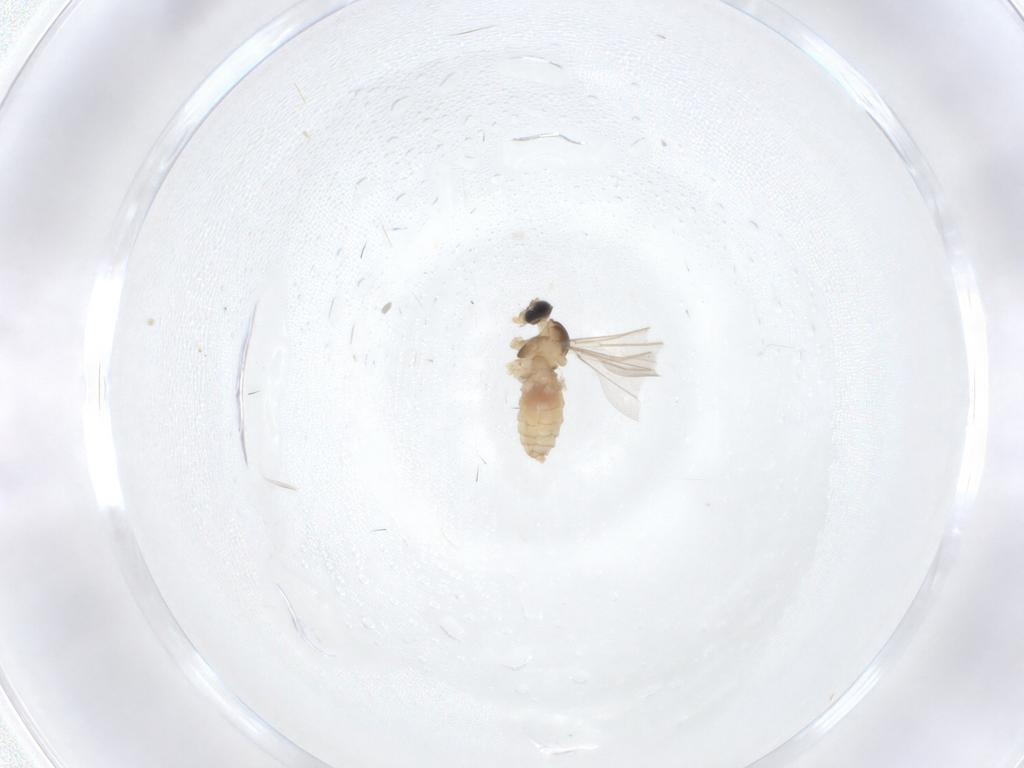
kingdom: Animalia
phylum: Arthropoda
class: Insecta
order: Diptera
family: Cecidomyiidae
